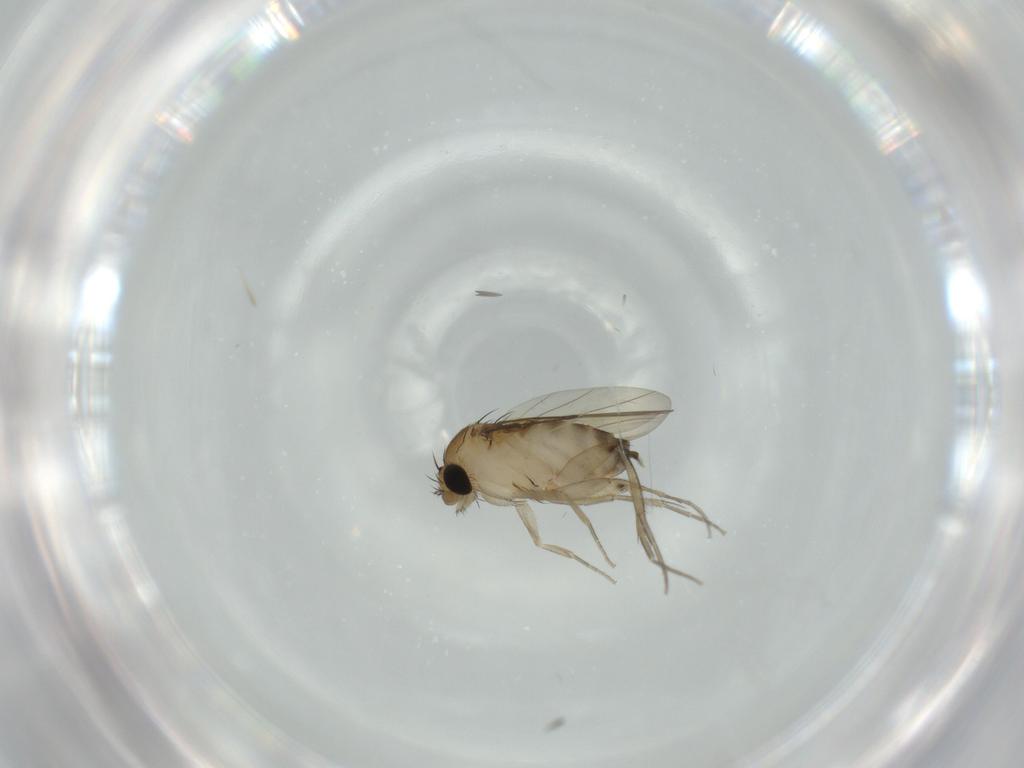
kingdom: Animalia
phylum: Arthropoda
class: Insecta
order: Diptera
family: Phoridae
